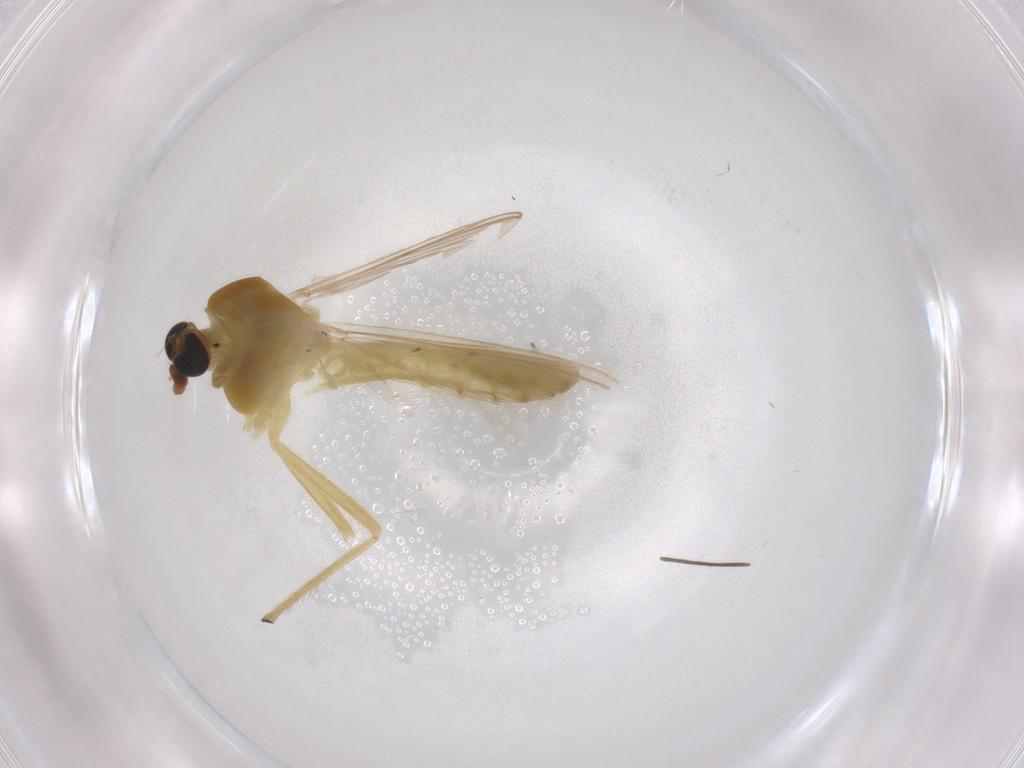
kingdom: Animalia
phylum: Arthropoda
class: Insecta
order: Diptera
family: Chironomidae
